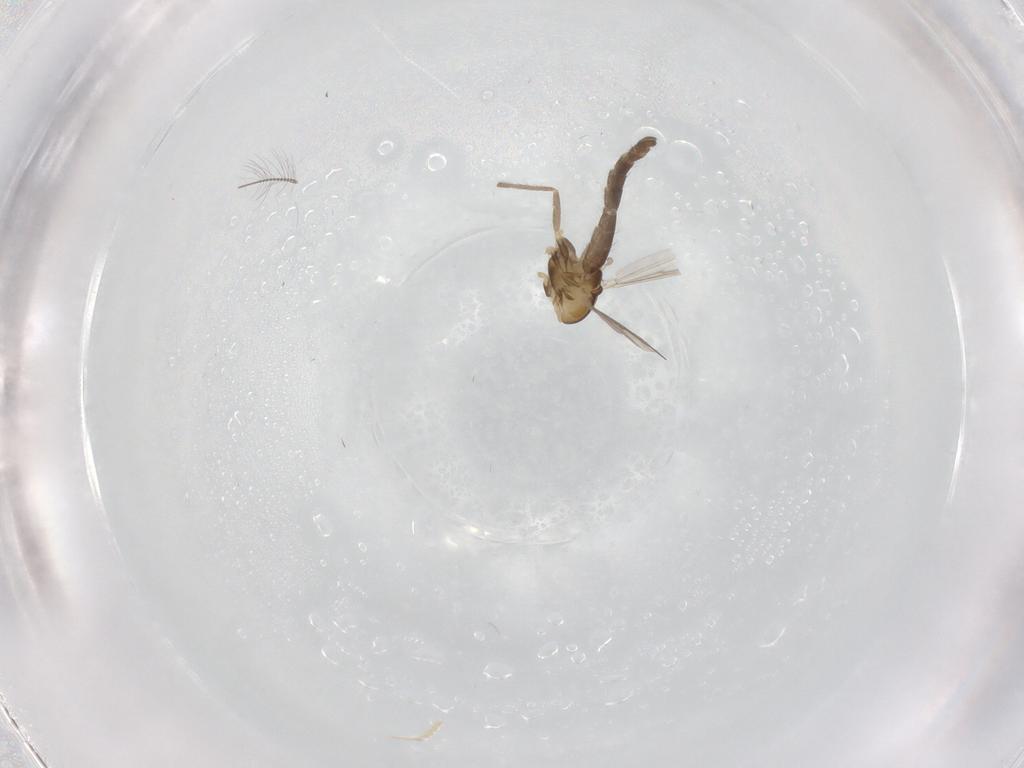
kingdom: Animalia
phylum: Arthropoda
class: Insecta
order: Diptera
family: Chironomidae
